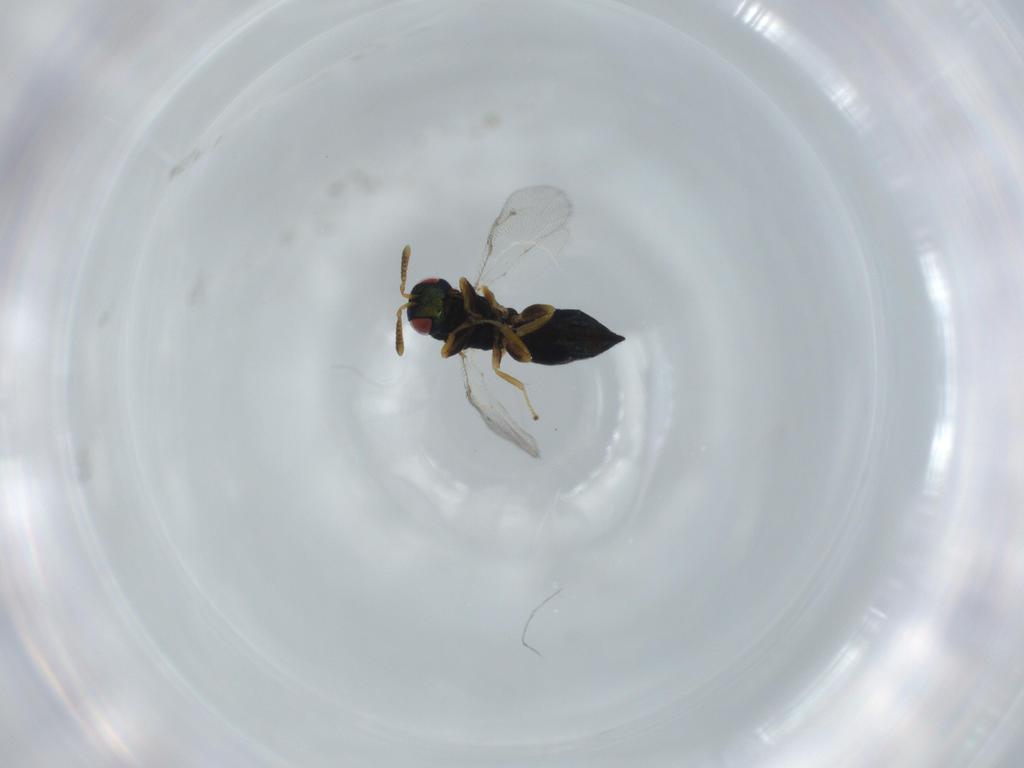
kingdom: Animalia
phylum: Arthropoda
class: Insecta
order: Hymenoptera
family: Pteromalidae
